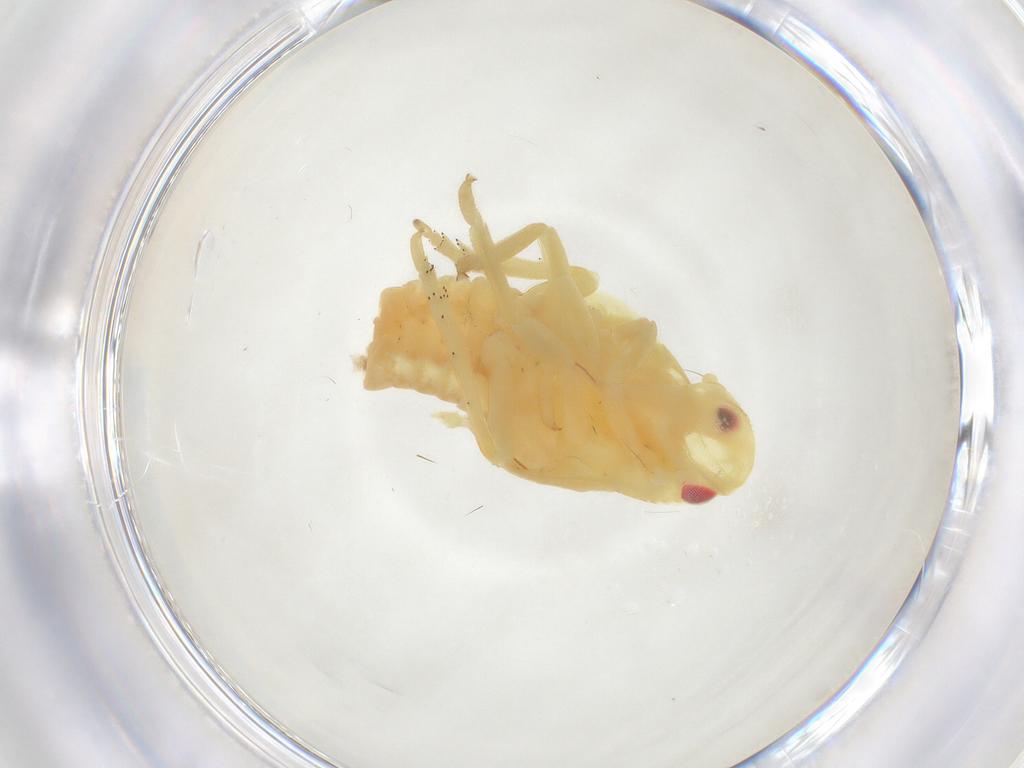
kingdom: Animalia
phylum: Arthropoda
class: Insecta
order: Hemiptera
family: Flatidae
